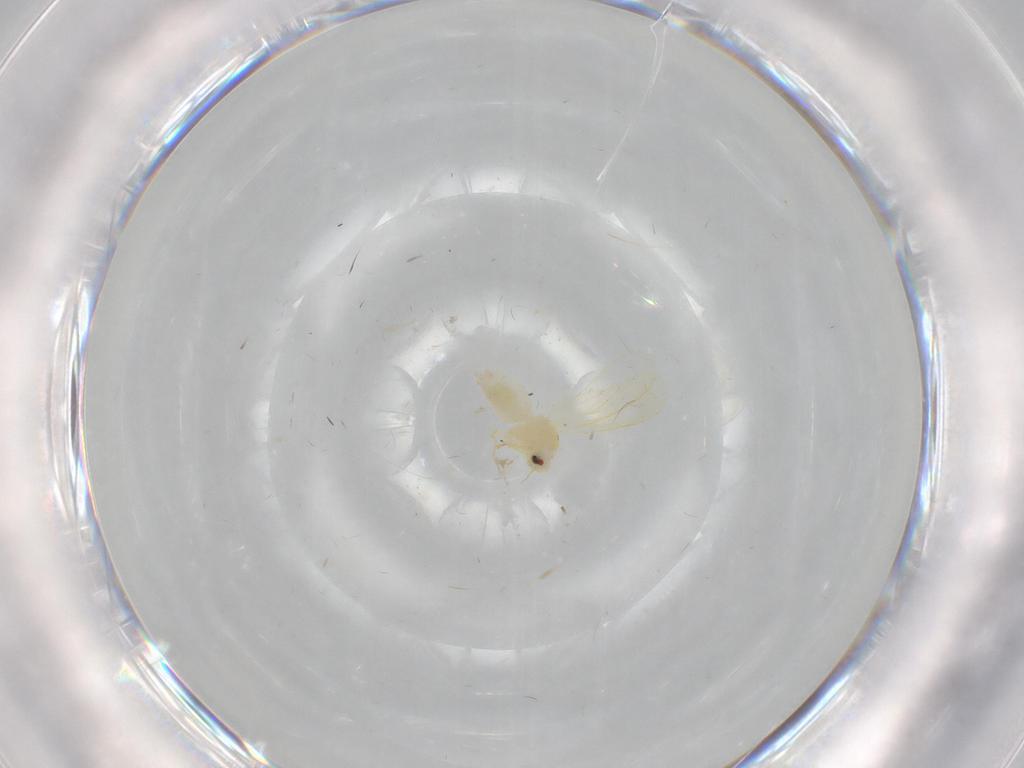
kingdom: Animalia
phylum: Arthropoda
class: Insecta
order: Hemiptera
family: Aleyrodidae
